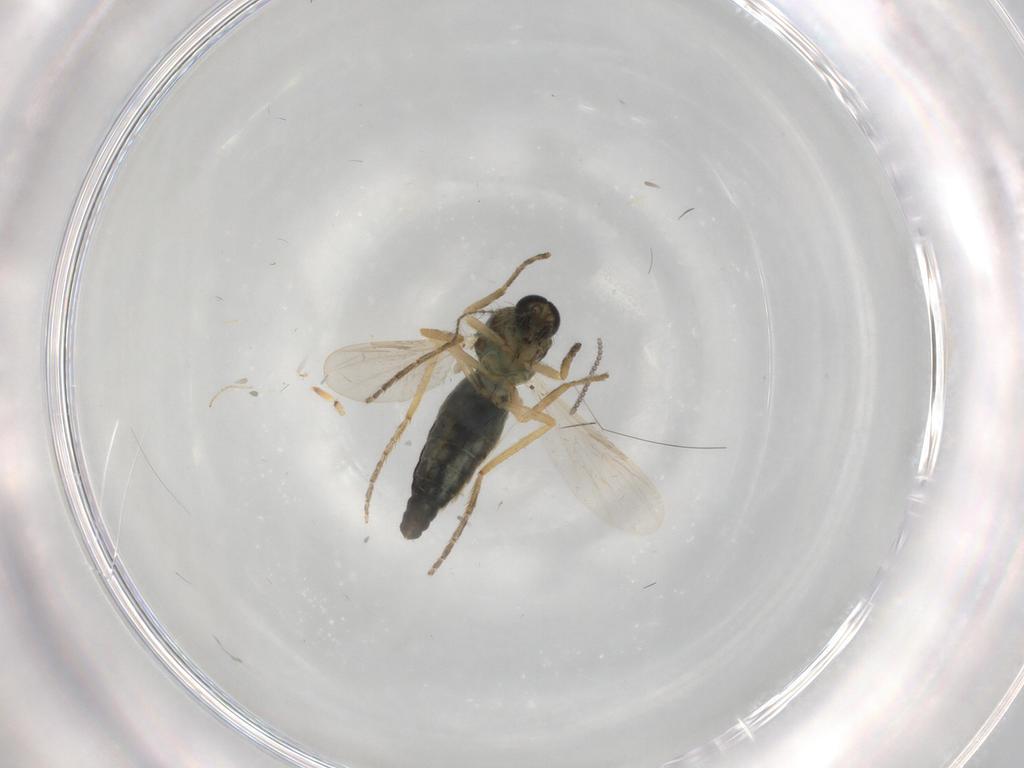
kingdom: Animalia
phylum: Arthropoda
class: Insecta
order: Diptera
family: Ceratopogonidae
